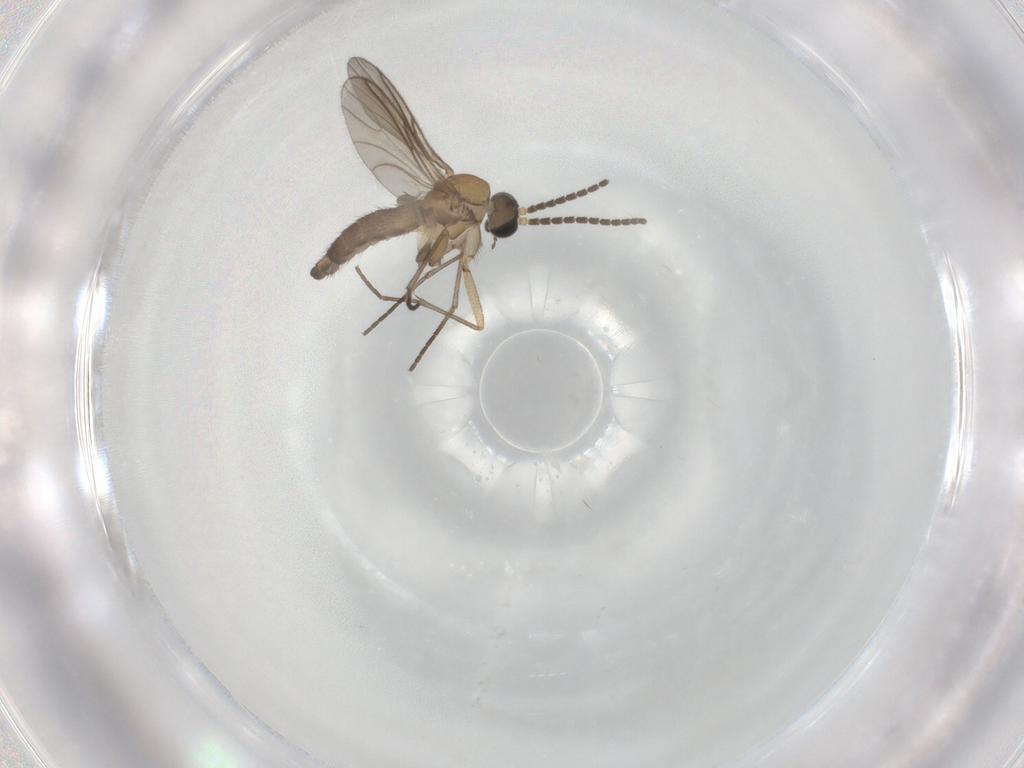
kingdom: Animalia
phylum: Arthropoda
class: Insecta
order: Diptera
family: Sciaridae
